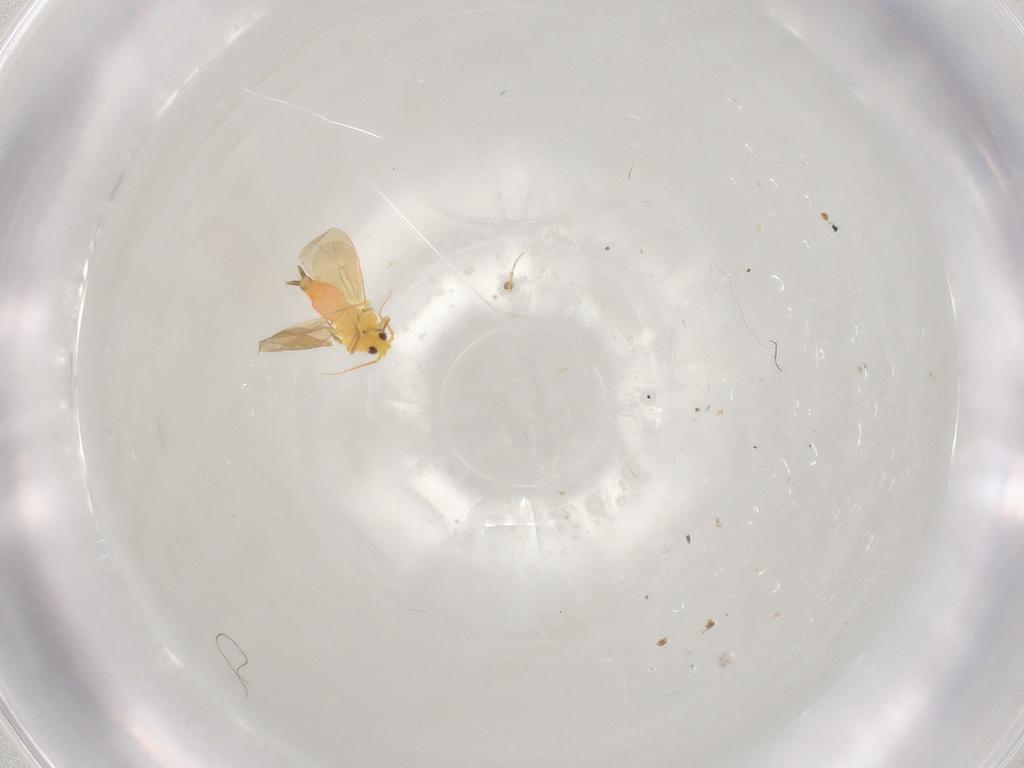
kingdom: Animalia
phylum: Arthropoda
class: Insecta
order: Hemiptera
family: Aleyrodidae
